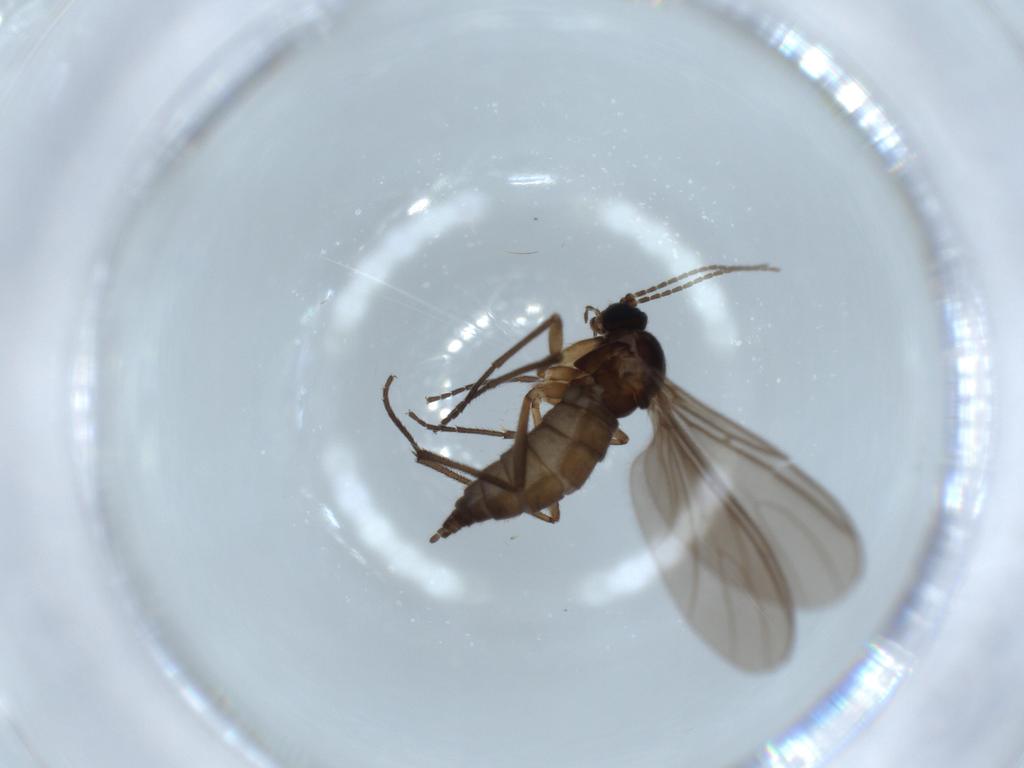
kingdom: Animalia
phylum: Arthropoda
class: Insecta
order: Diptera
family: Sciaridae
